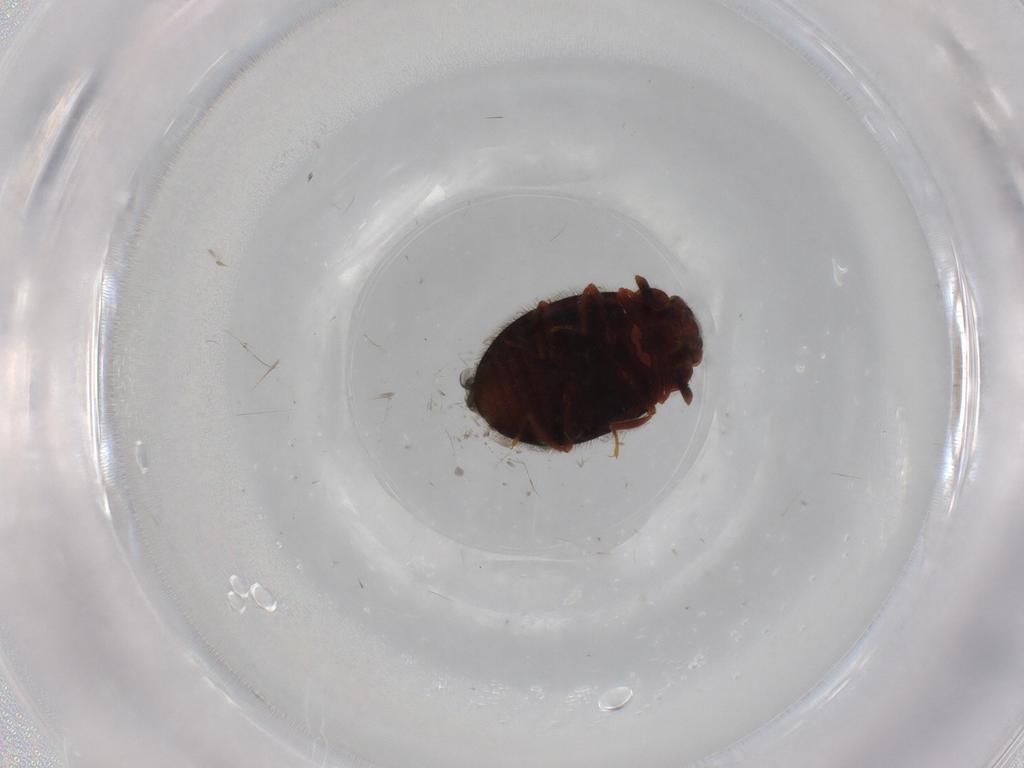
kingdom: Animalia
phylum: Arthropoda
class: Insecta
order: Coleoptera
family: Sphindidae
